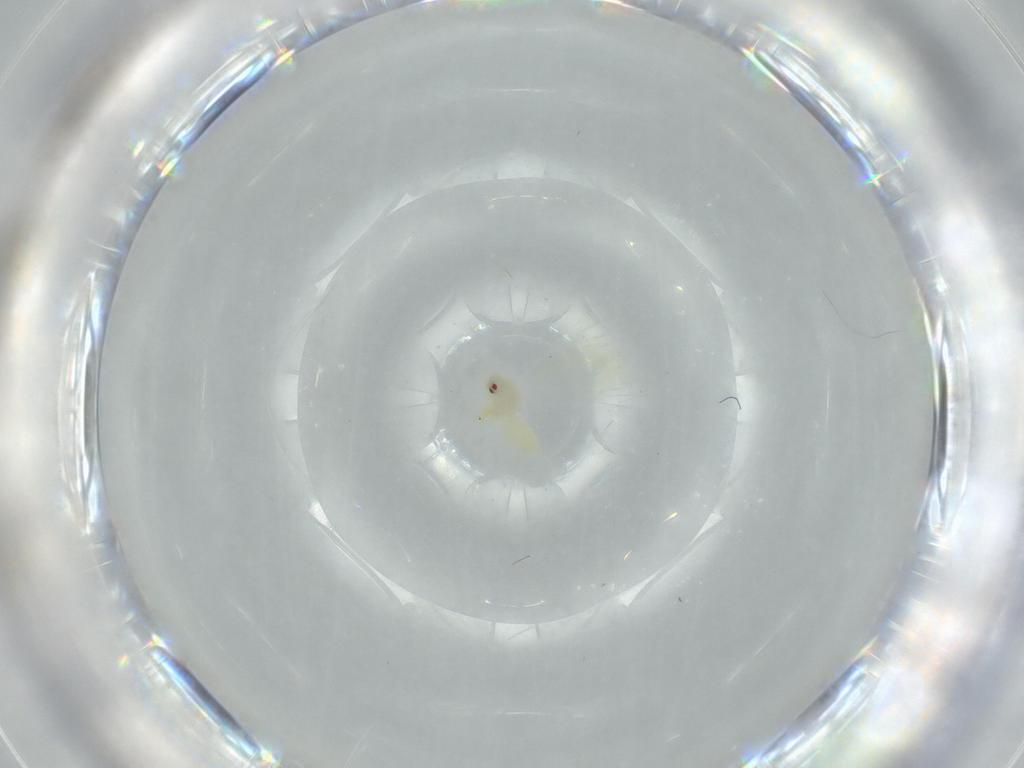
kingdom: Animalia
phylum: Arthropoda
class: Insecta
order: Hemiptera
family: Aleyrodidae
